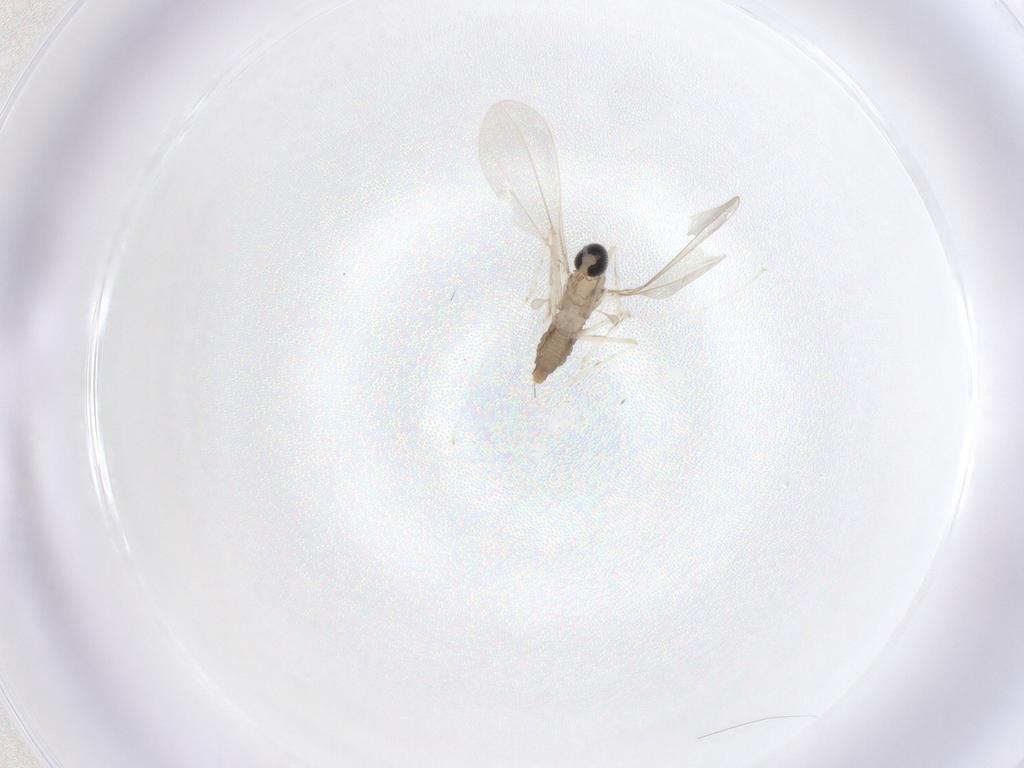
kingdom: Animalia
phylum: Arthropoda
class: Insecta
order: Diptera
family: Cecidomyiidae
